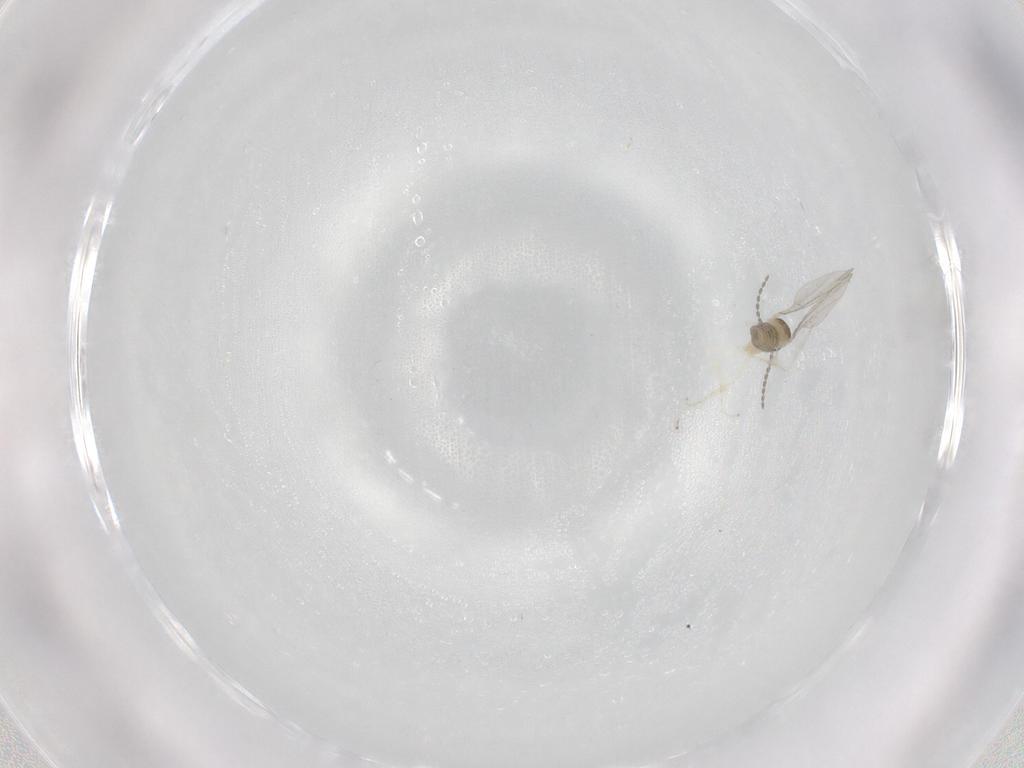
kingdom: Animalia
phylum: Arthropoda
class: Insecta
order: Diptera
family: Cecidomyiidae
